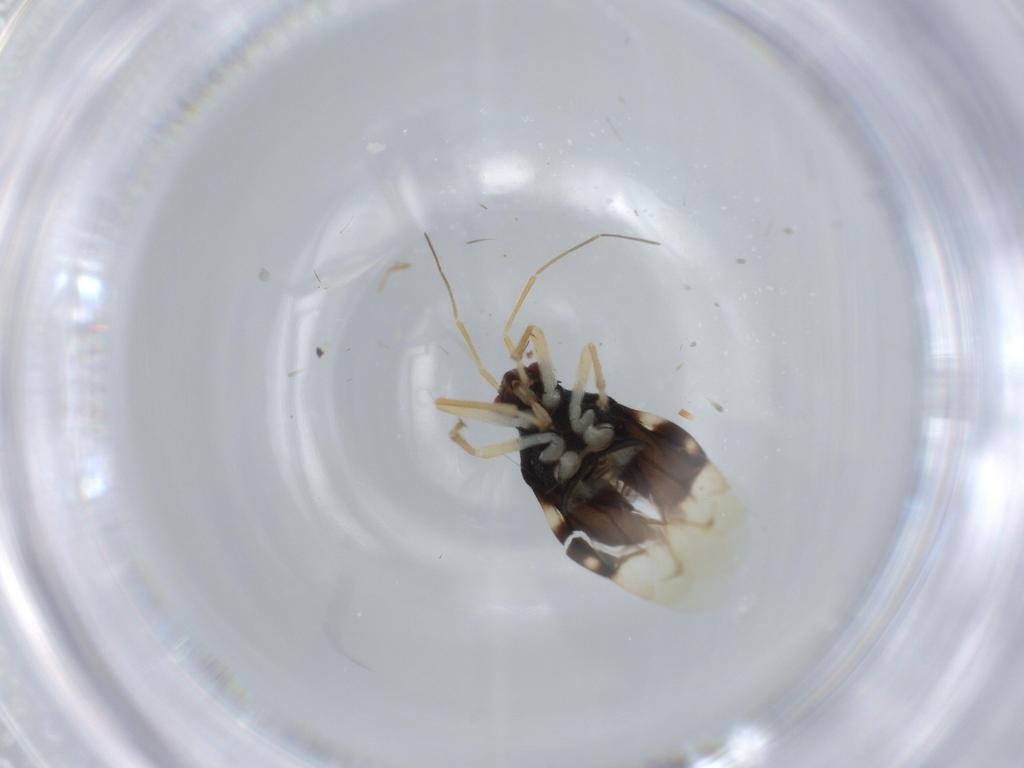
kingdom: Animalia
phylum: Arthropoda
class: Insecta
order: Hemiptera
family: Miridae
